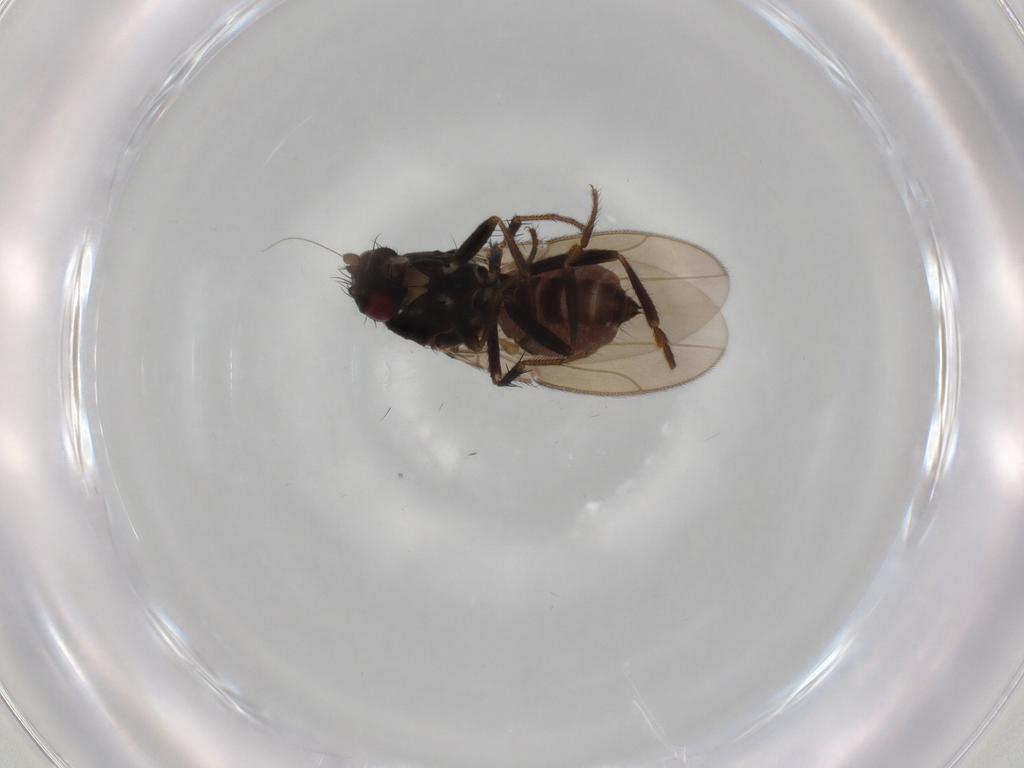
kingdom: Animalia
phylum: Arthropoda
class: Insecta
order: Diptera
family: Sphaeroceridae
